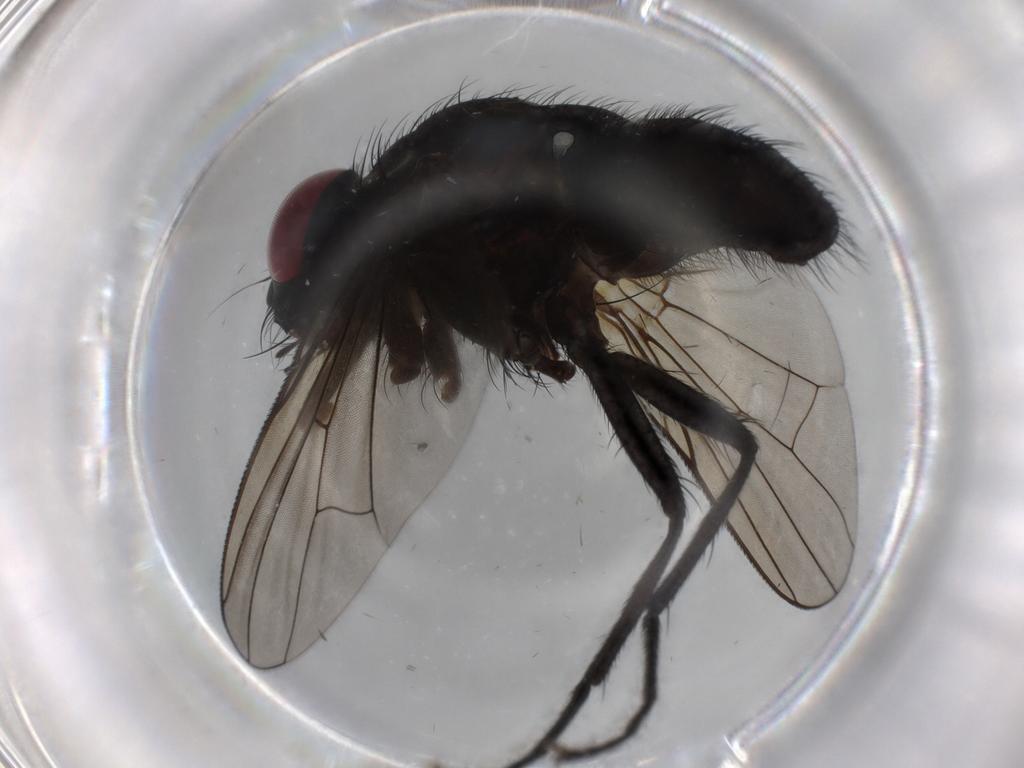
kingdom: Animalia
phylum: Arthropoda
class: Insecta
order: Diptera
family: Muscidae
